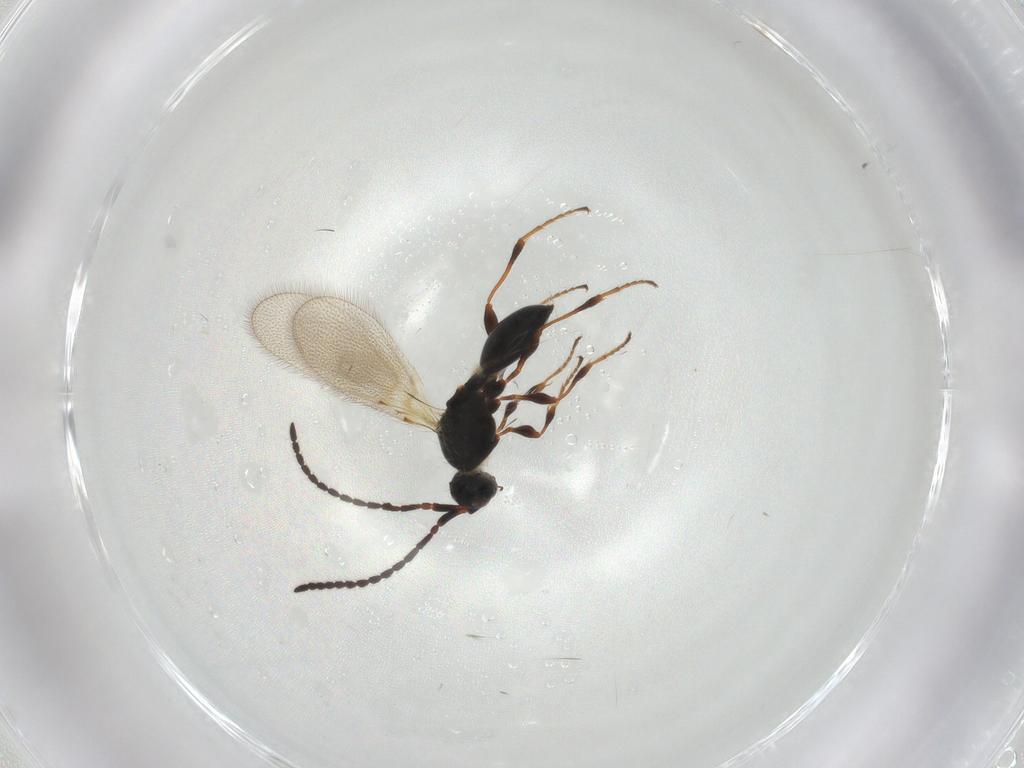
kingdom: Animalia
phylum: Arthropoda
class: Insecta
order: Hymenoptera
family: Diapriidae
